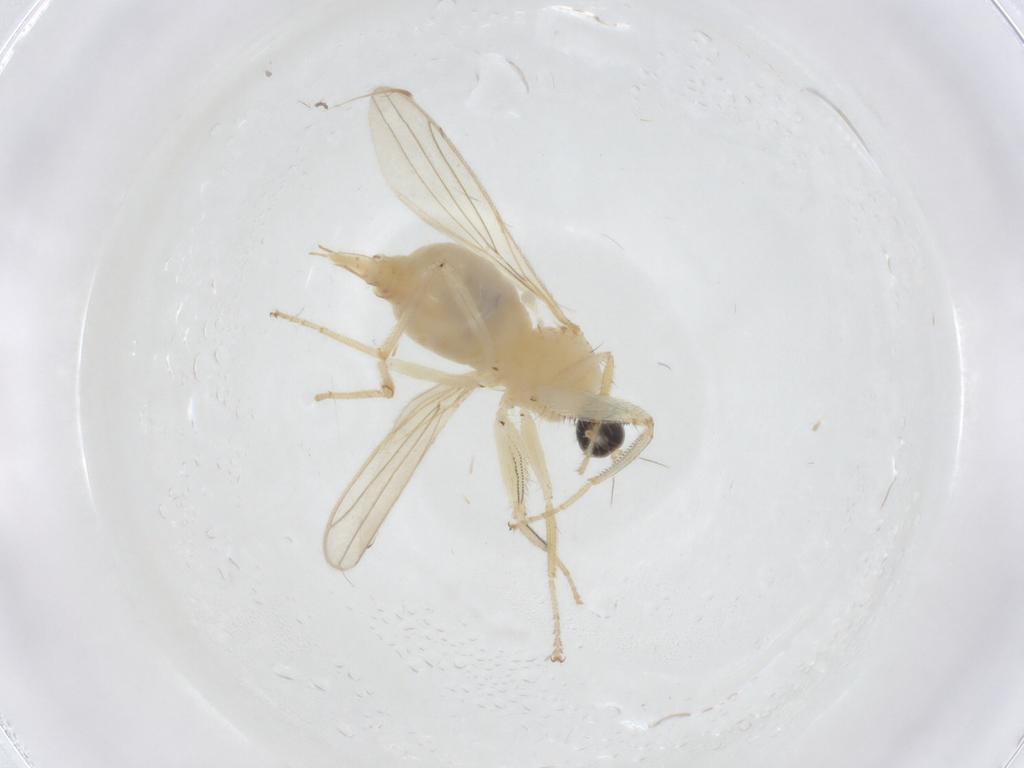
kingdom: Animalia
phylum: Arthropoda
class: Insecta
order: Diptera
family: Hybotidae
